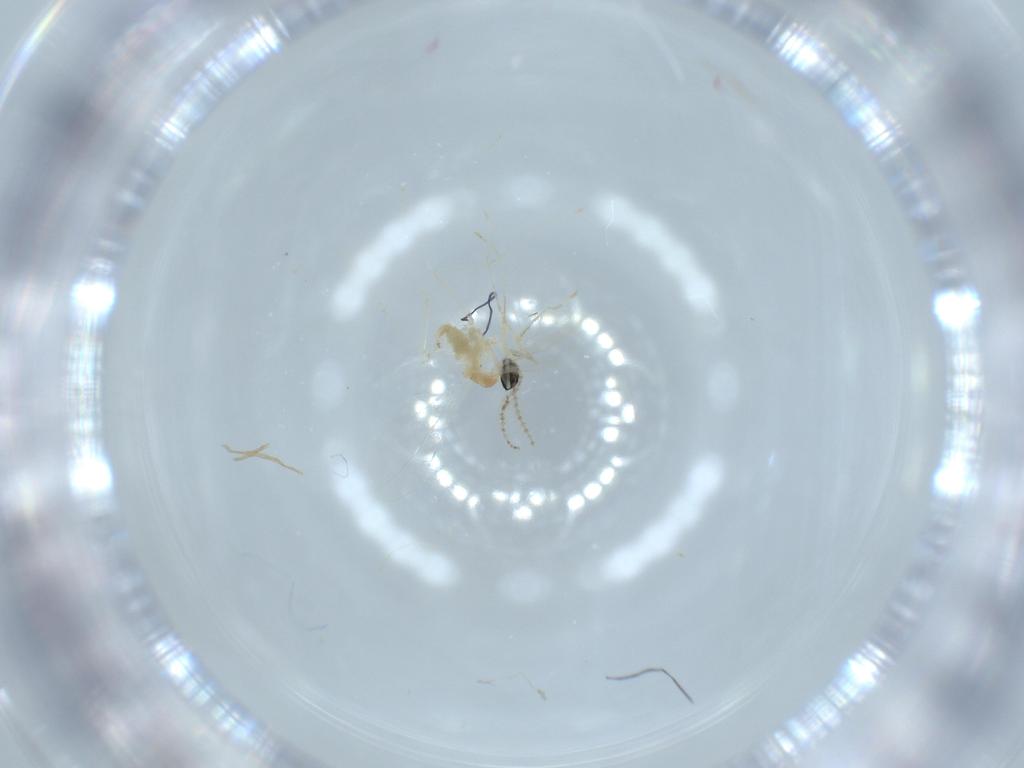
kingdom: Animalia
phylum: Arthropoda
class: Insecta
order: Diptera
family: Cecidomyiidae
